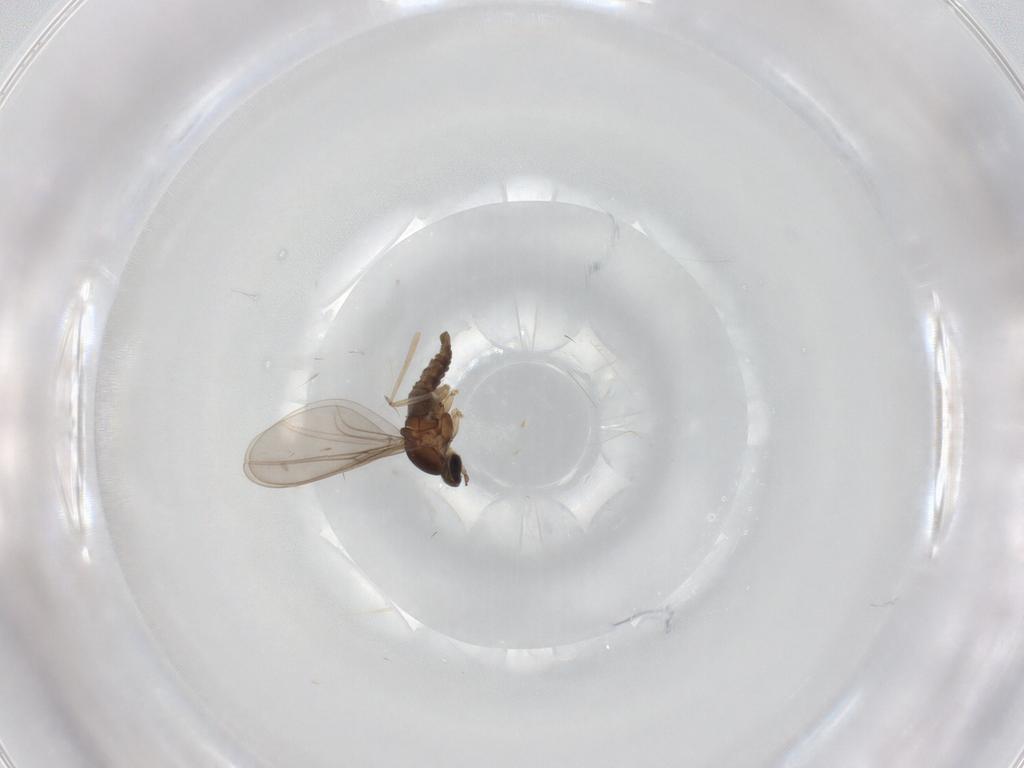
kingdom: Animalia
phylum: Arthropoda
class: Insecta
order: Diptera
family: Cecidomyiidae
